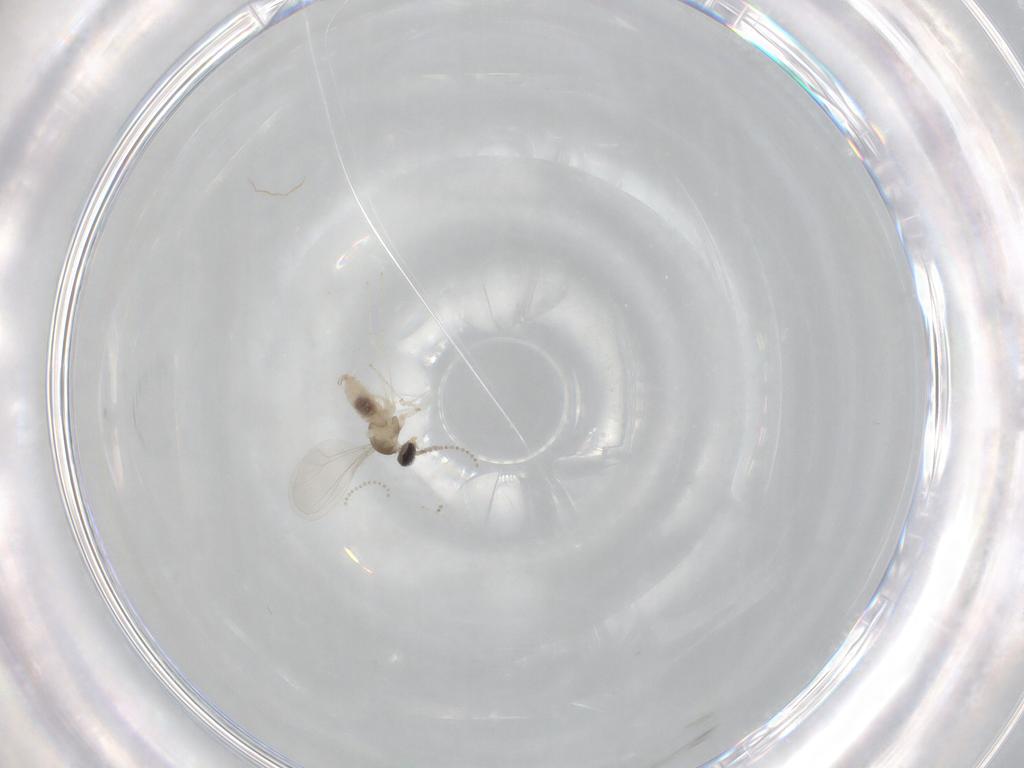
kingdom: Animalia
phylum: Arthropoda
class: Insecta
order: Diptera
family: Cecidomyiidae
